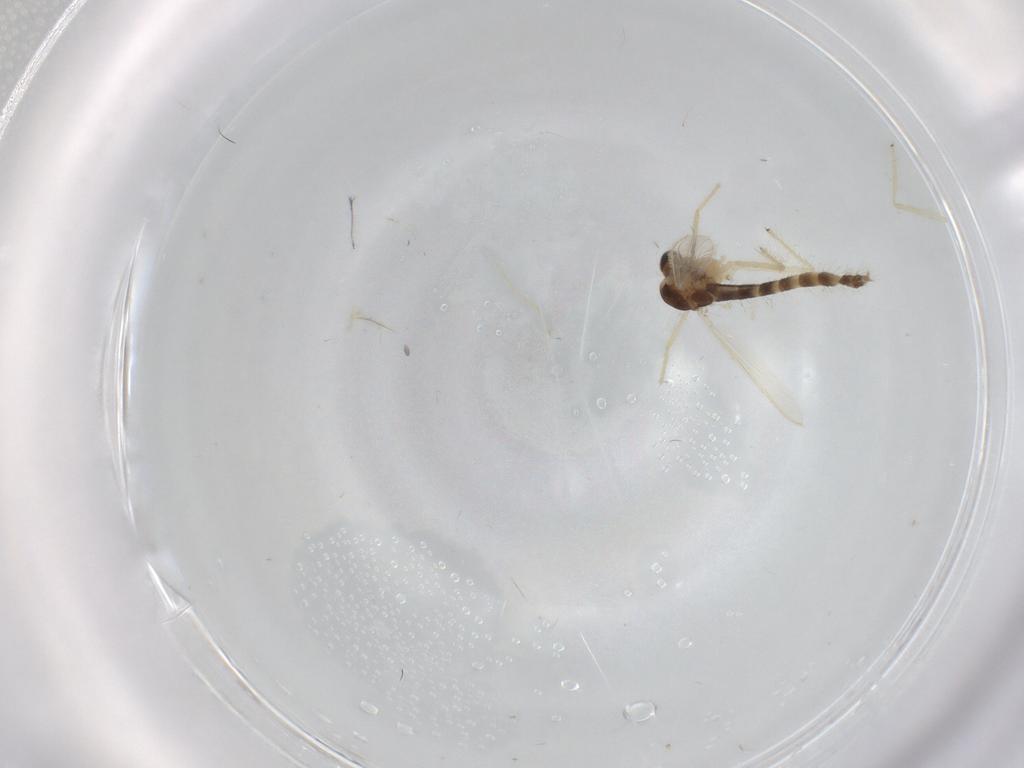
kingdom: Animalia
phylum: Arthropoda
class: Insecta
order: Diptera
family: Chironomidae
